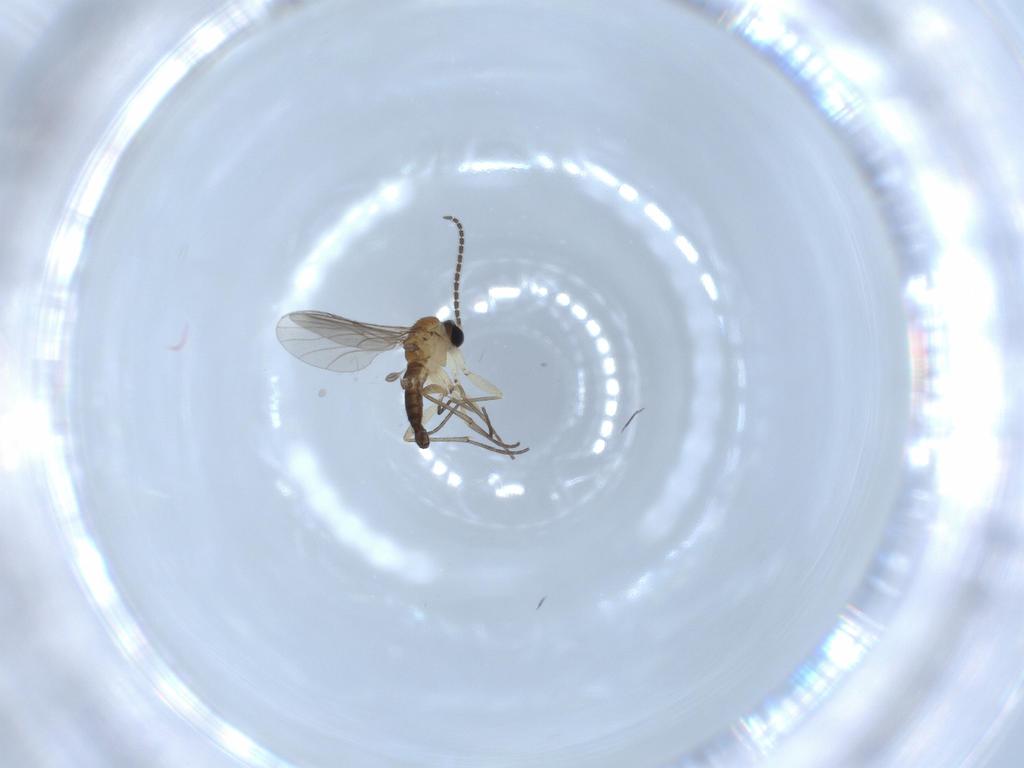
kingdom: Animalia
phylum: Arthropoda
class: Insecta
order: Diptera
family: Sciaridae
